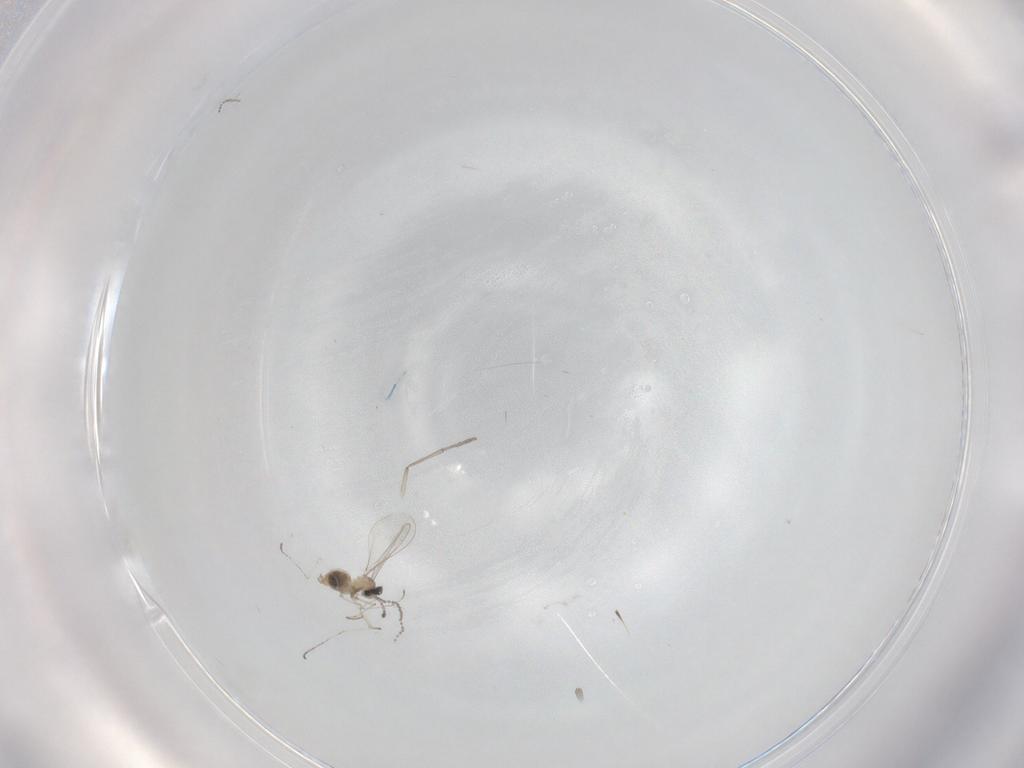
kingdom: Animalia
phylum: Arthropoda
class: Insecta
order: Diptera
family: Cecidomyiidae
